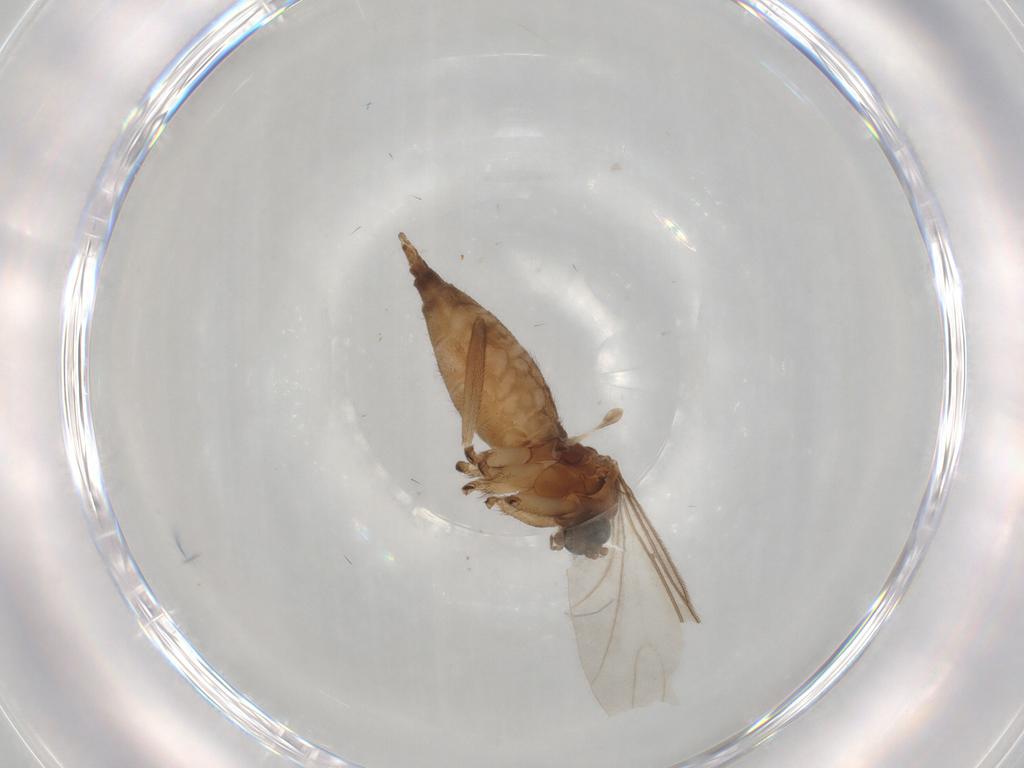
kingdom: Animalia
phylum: Arthropoda
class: Insecta
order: Diptera
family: Sciaridae
